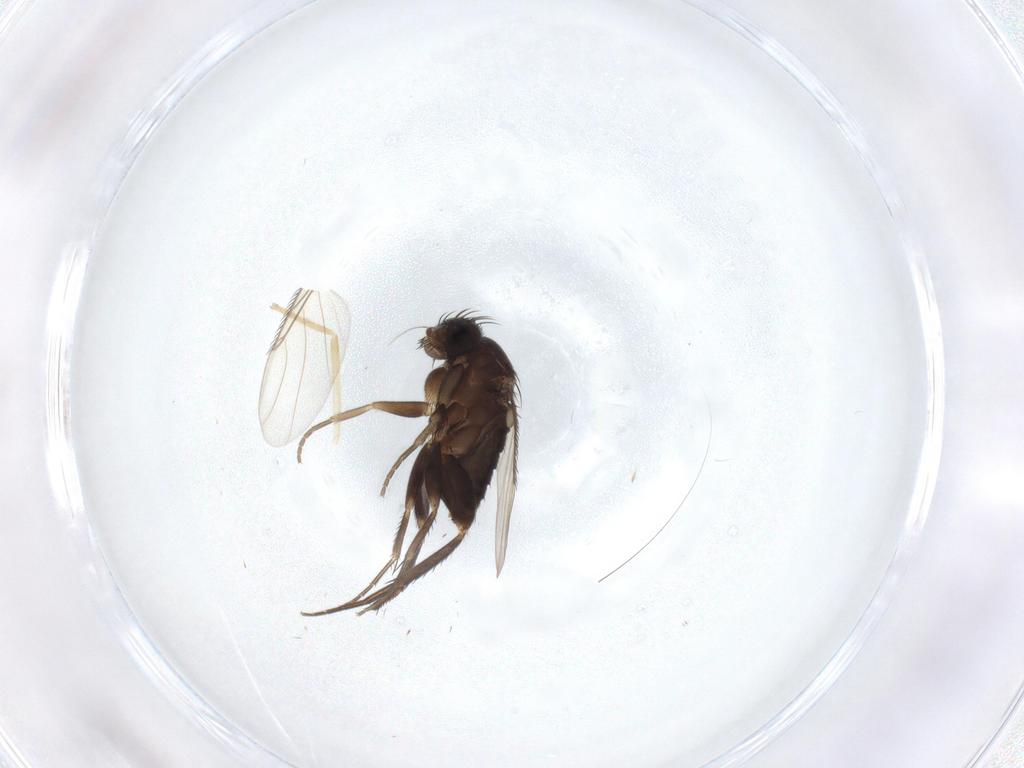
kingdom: Animalia
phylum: Arthropoda
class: Insecta
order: Diptera
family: Phoridae
